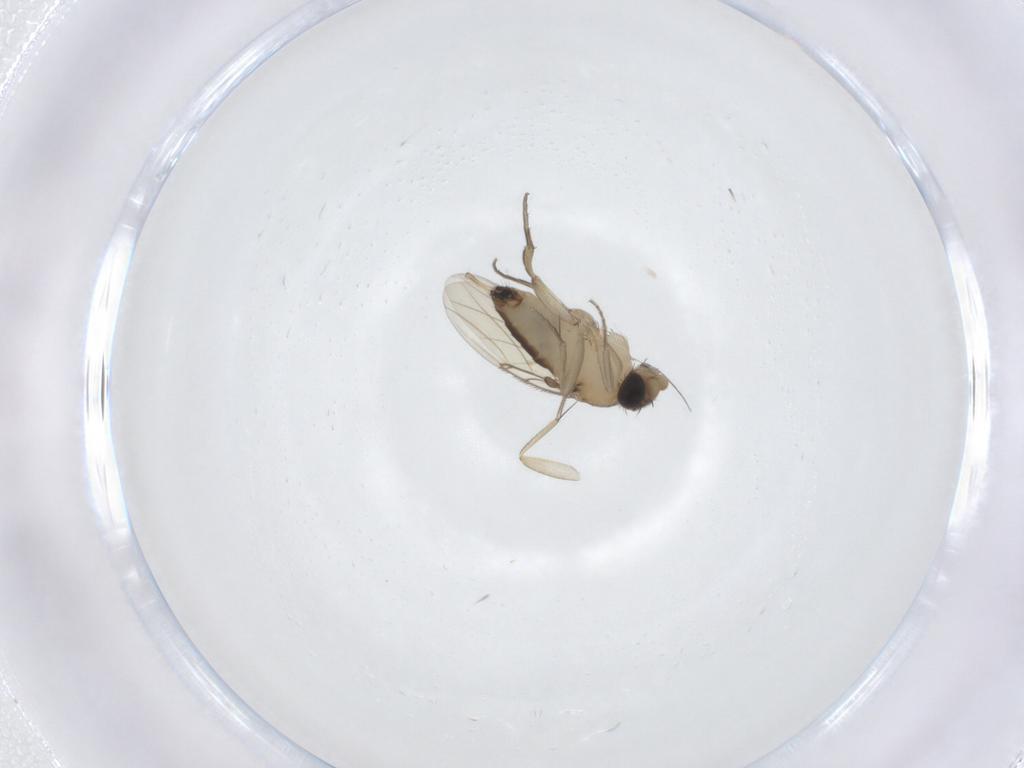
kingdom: Animalia
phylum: Arthropoda
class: Insecta
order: Diptera
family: Phoridae
